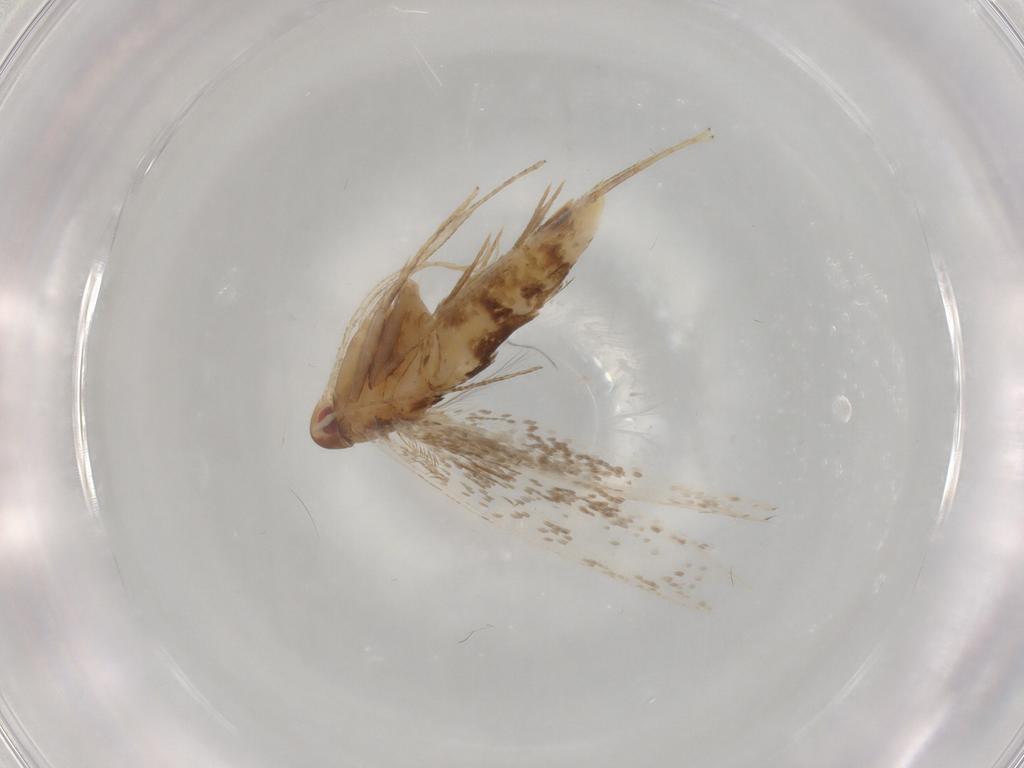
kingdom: Animalia
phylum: Arthropoda
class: Insecta
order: Lepidoptera
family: Cosmopterigidae
